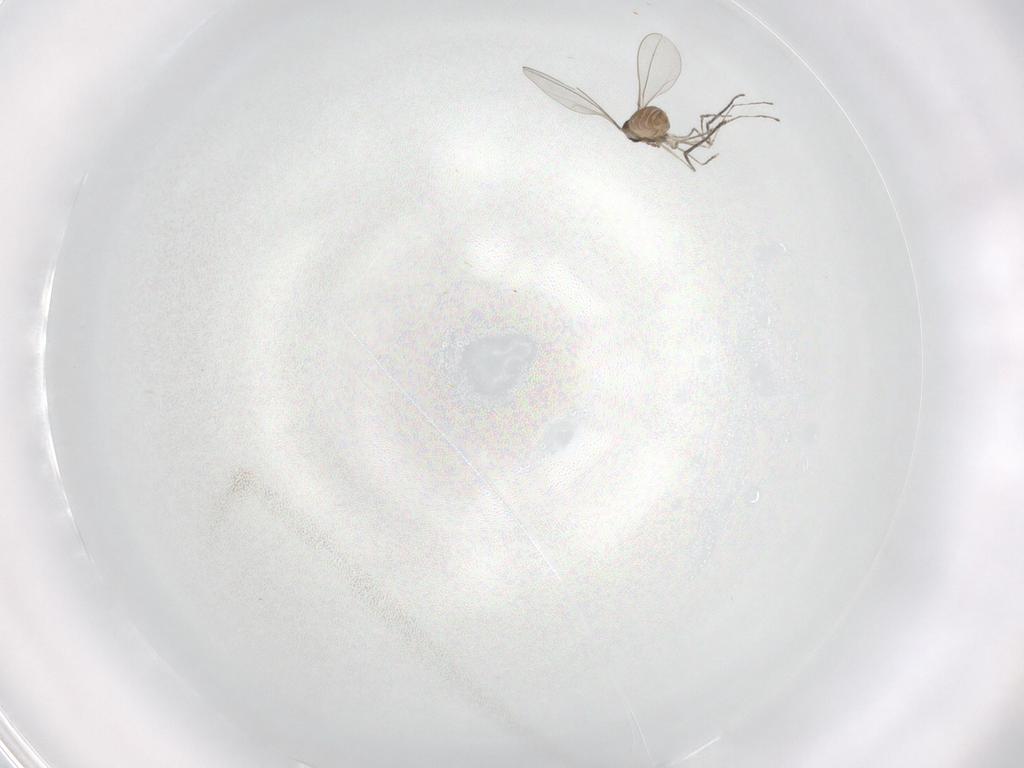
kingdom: Animalia
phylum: Arthropoda
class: Insecta
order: Diptera
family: Cecidomyiidae
